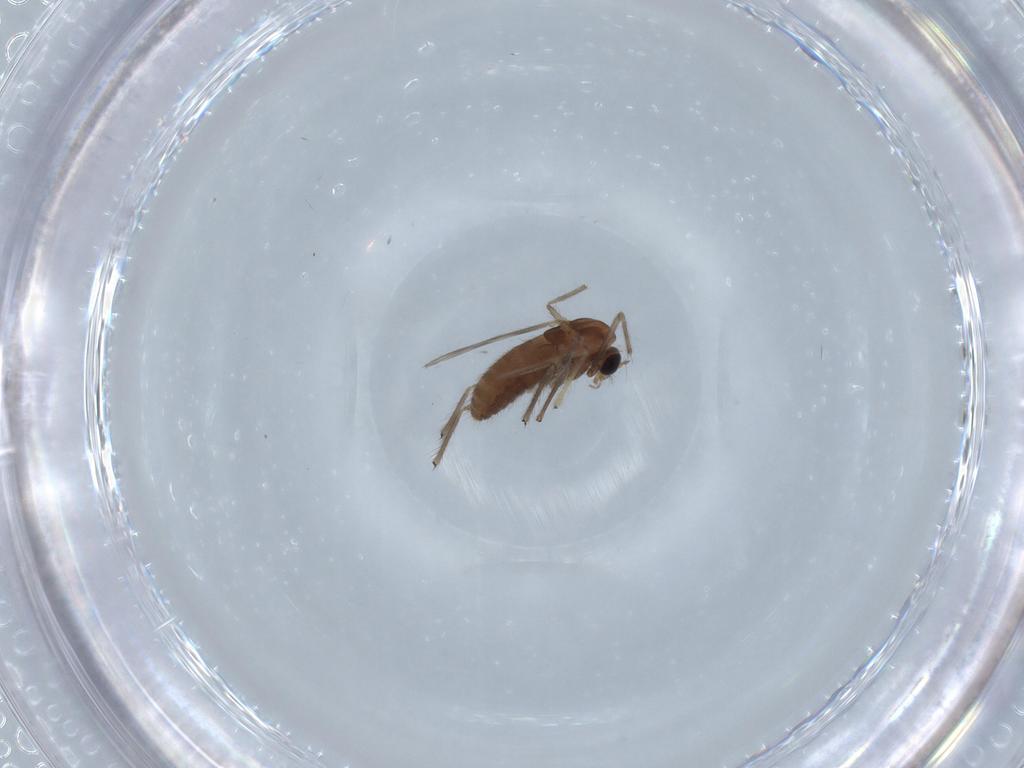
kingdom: Animalia
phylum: Arthropoda
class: Insecta
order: Diptera
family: Chironomidae
